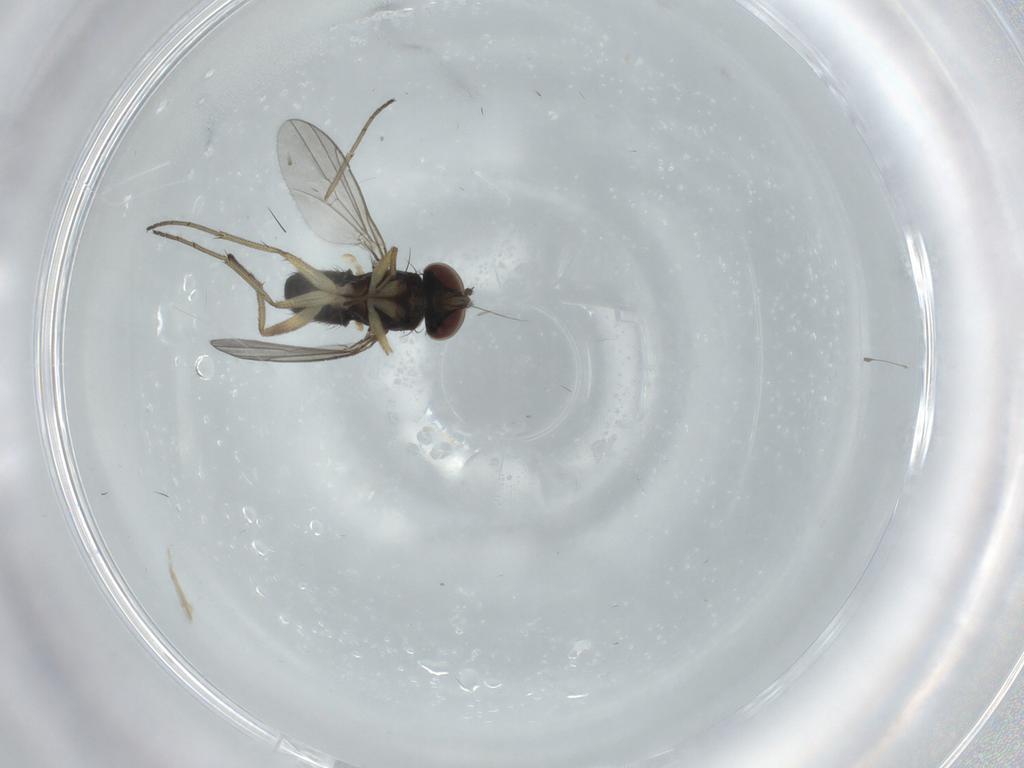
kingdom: Animalia
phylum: Arthropoda
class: Insecta
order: Diptera
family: Dolichopodidae
